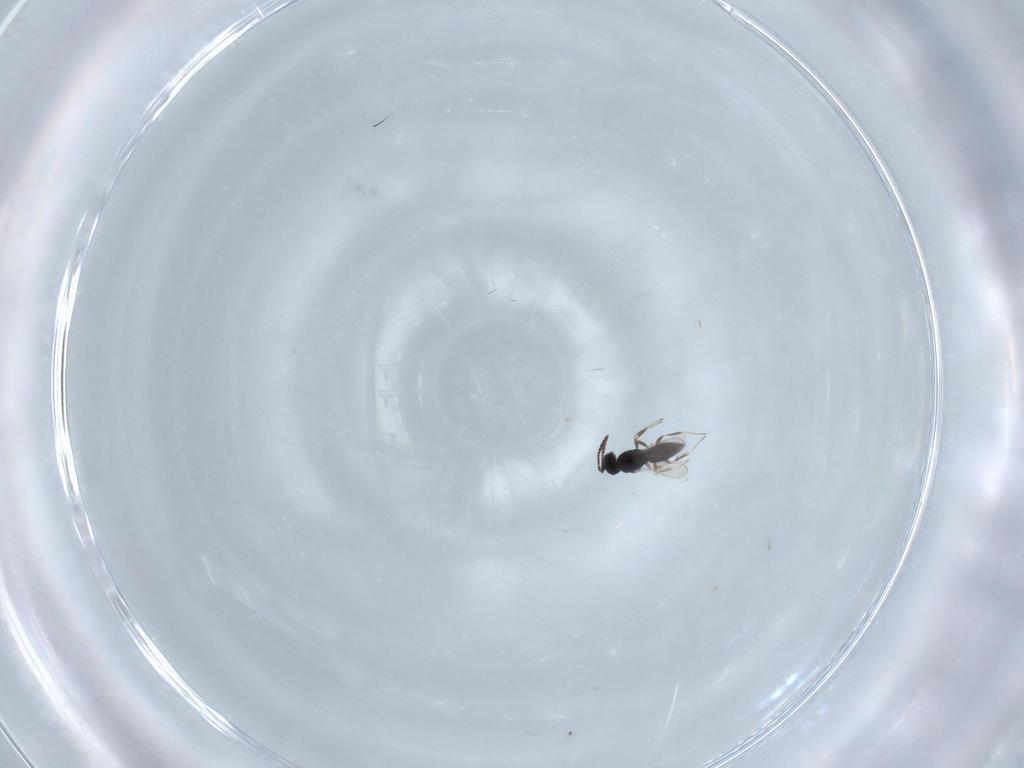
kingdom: Animalia
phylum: Arthropoda
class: Insecta
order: Hymenoptera
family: Scelionidae
